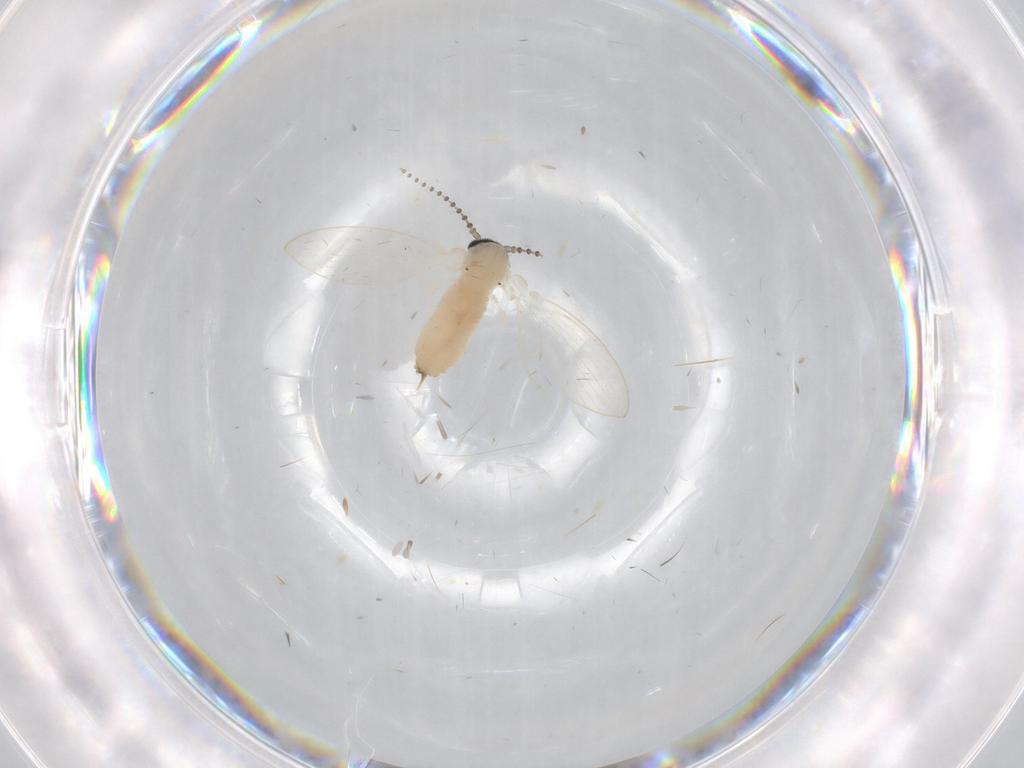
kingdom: Animalia
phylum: Arthropoda
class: Insecta
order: Diptera
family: Psychodidae
